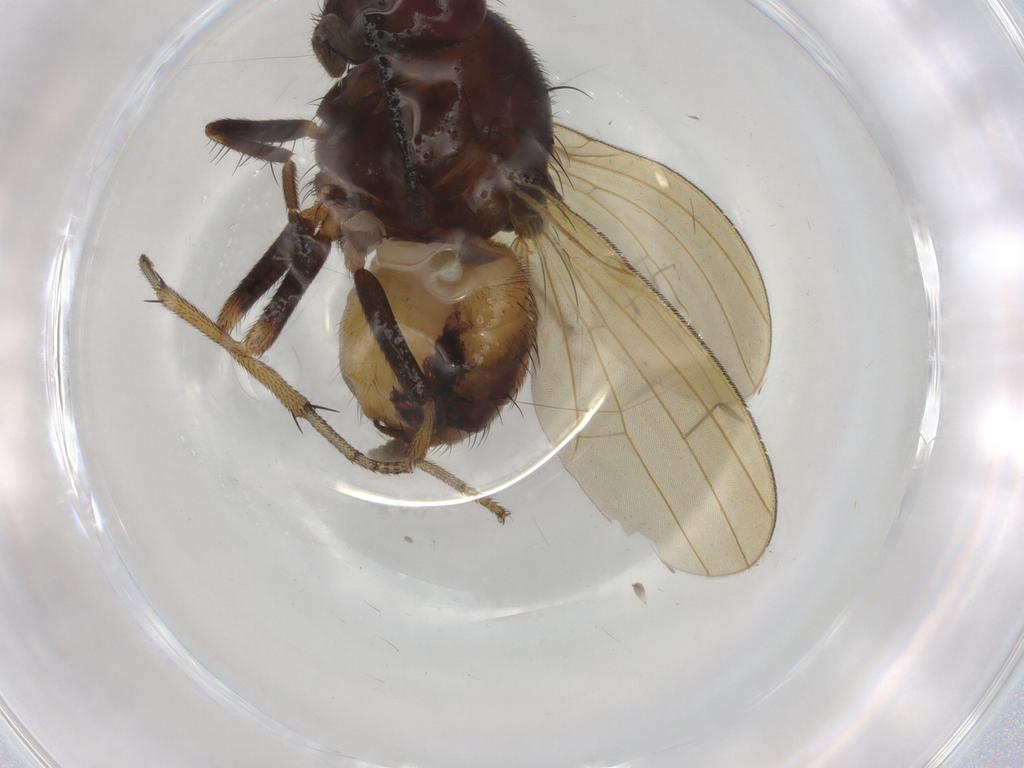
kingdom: Animalia
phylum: Arthropoda
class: Insecta
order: Diptera
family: Sciaridae
